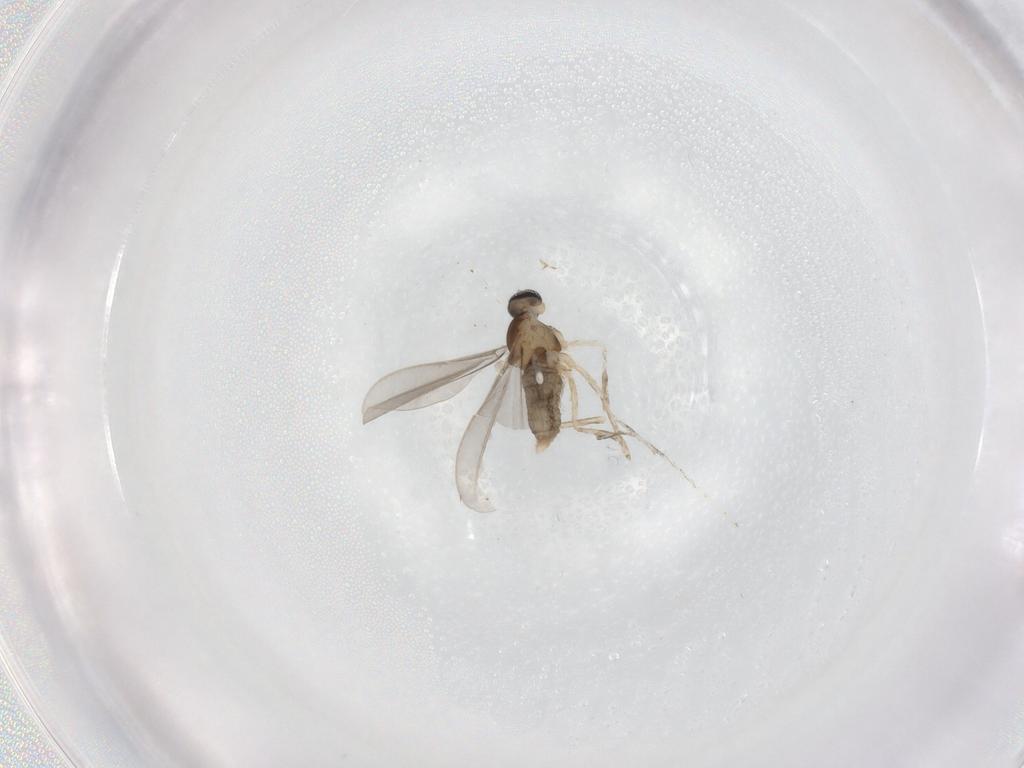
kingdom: Animalia
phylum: Arthropoda
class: Insecta
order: Diptera
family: Cecidomyiidae
